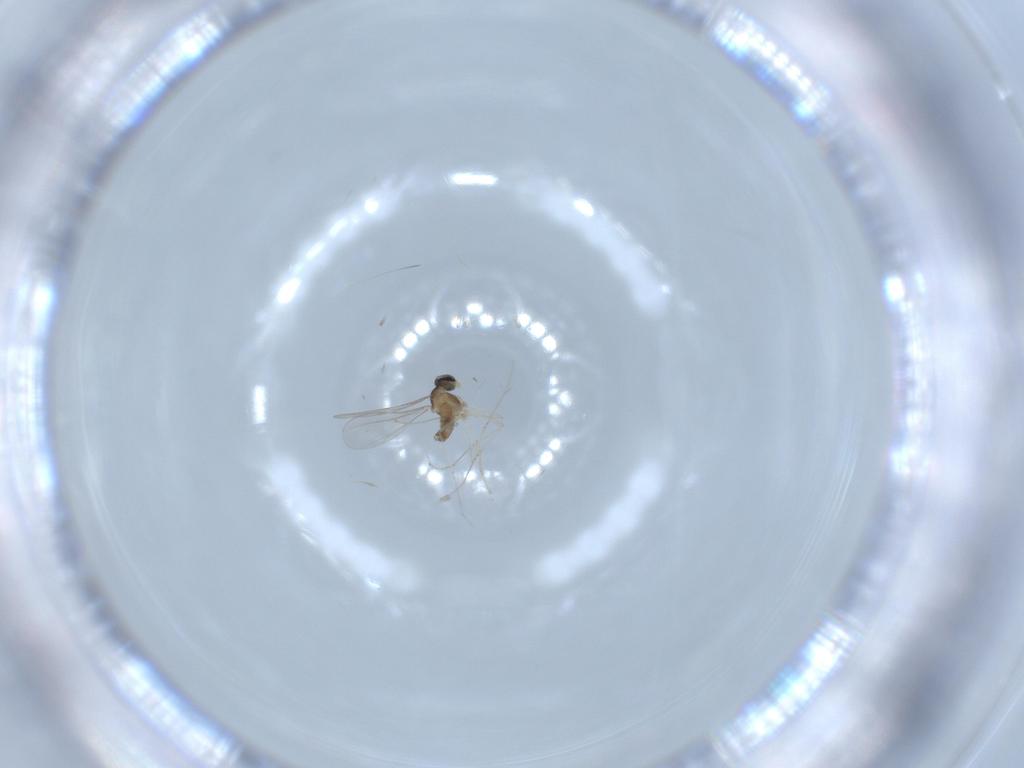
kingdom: Animalia
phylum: Arthropoda
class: Insecta
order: Diptera
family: Cecidomyiidae
